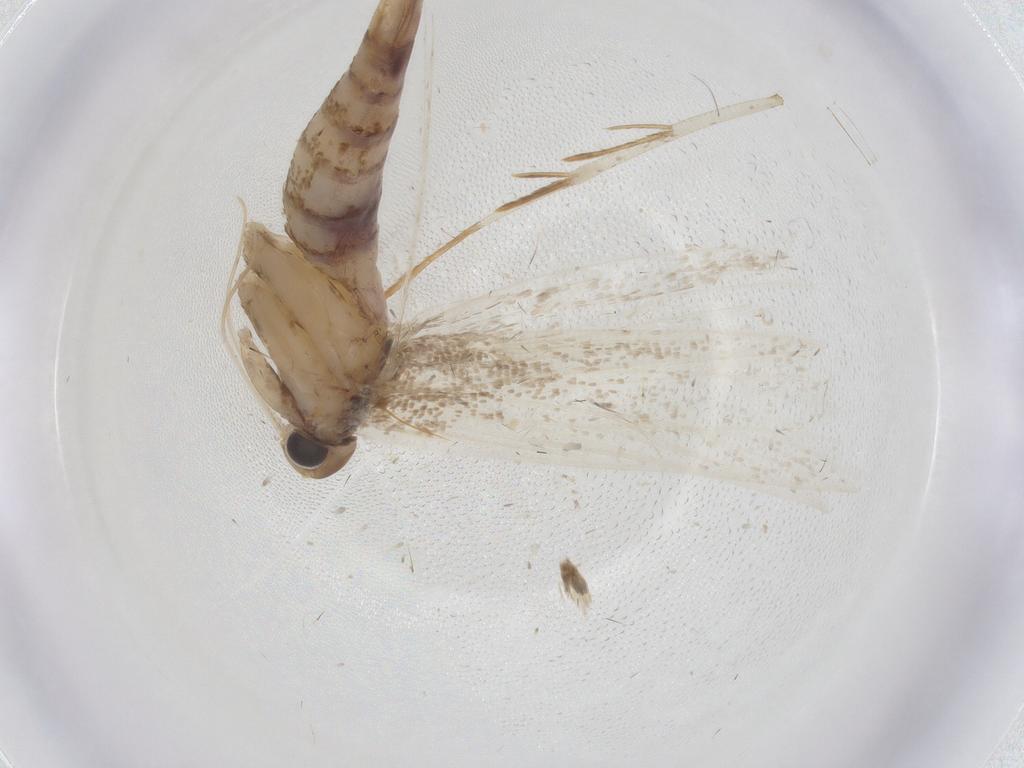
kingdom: Animalia
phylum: Arthropoda
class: Insecta
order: Lepidoptera
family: Gelechiidae
